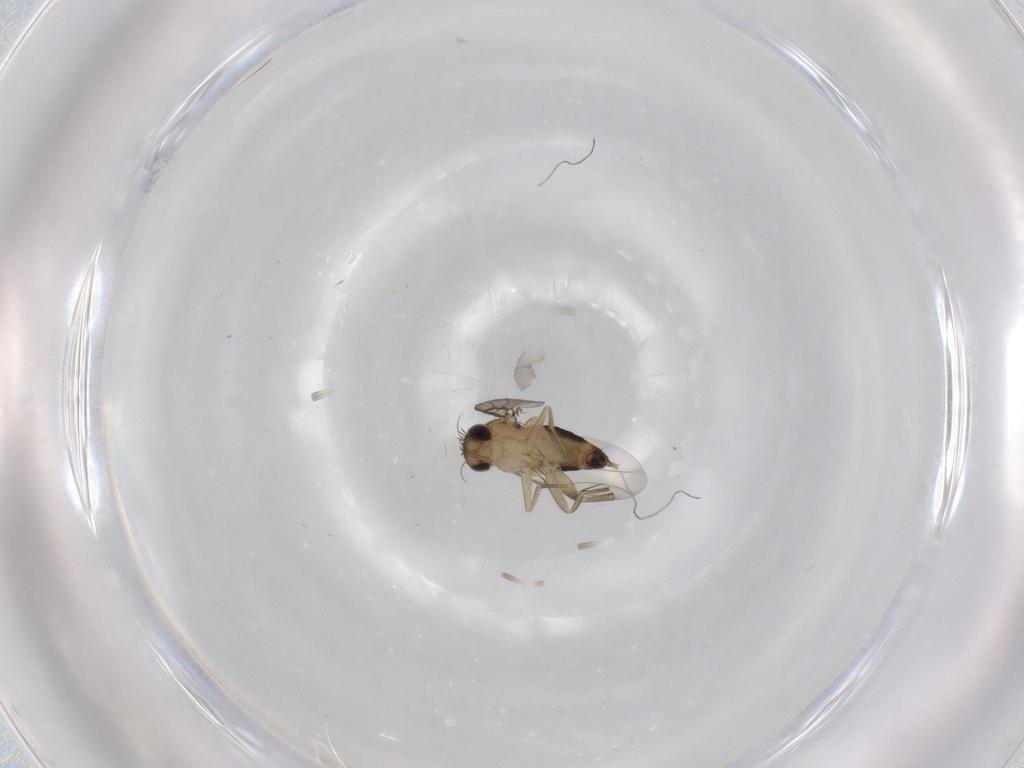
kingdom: Animalia
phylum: Arthropoda
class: Insecta
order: Diptera
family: Phoridae
